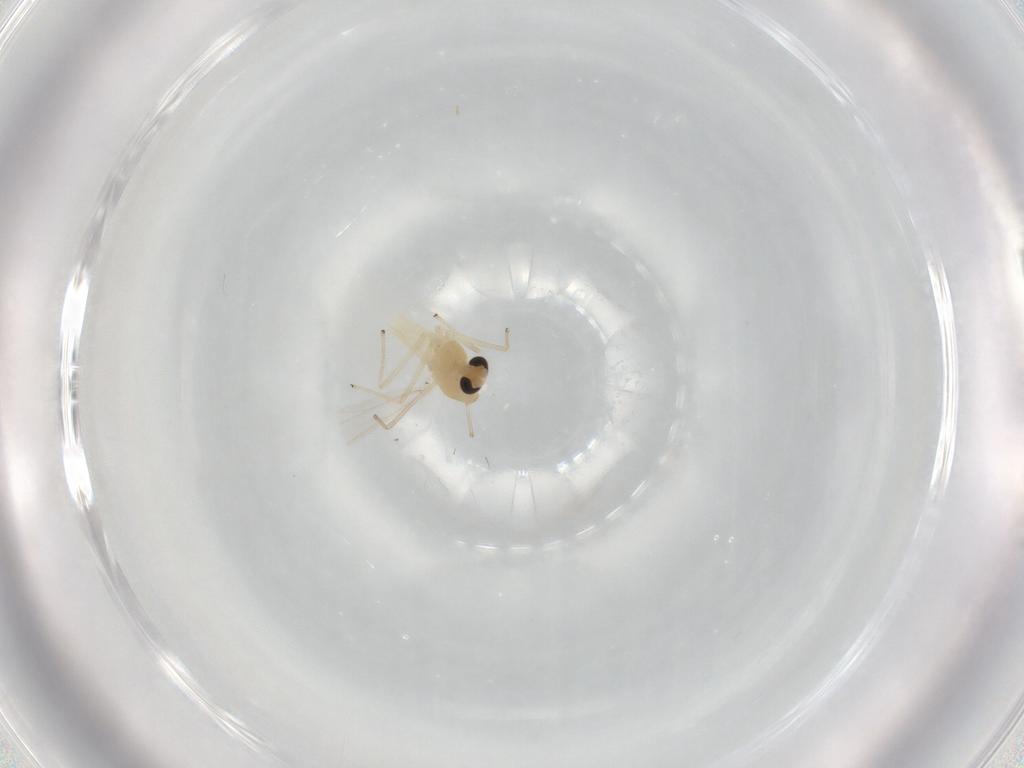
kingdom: Animalia
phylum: Arthropoda
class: Insecta
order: Diptera
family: Chironomidae
